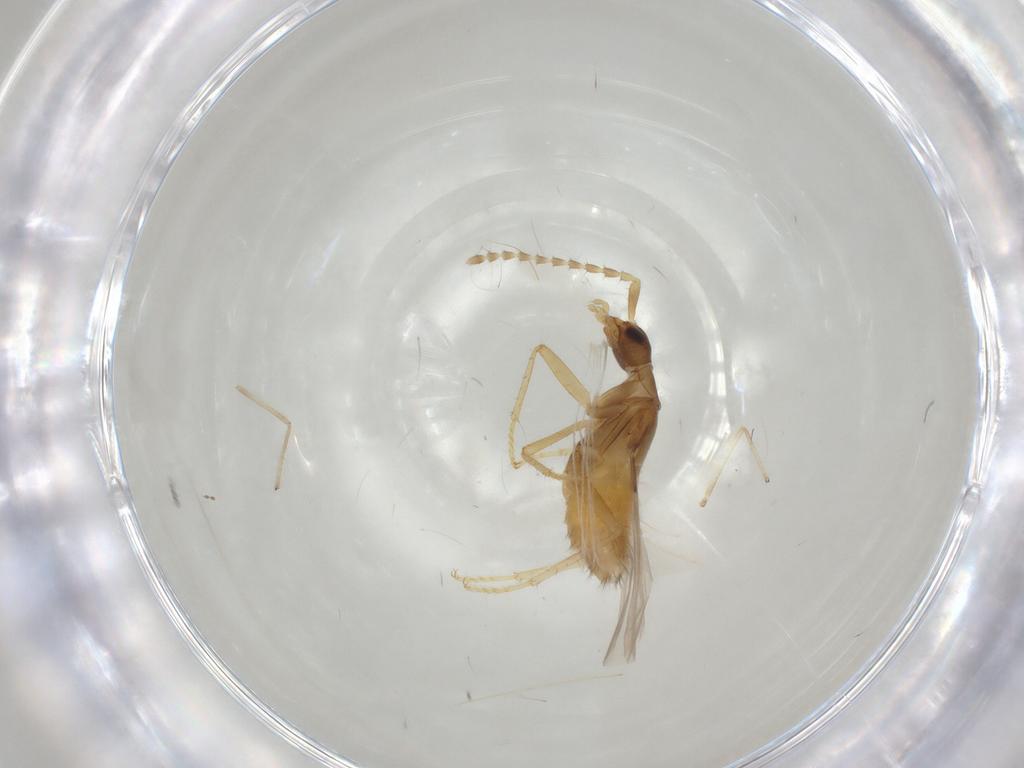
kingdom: Animalia
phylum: Arthropoda
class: Insecta
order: Coleoptera
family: Staphylinidae
